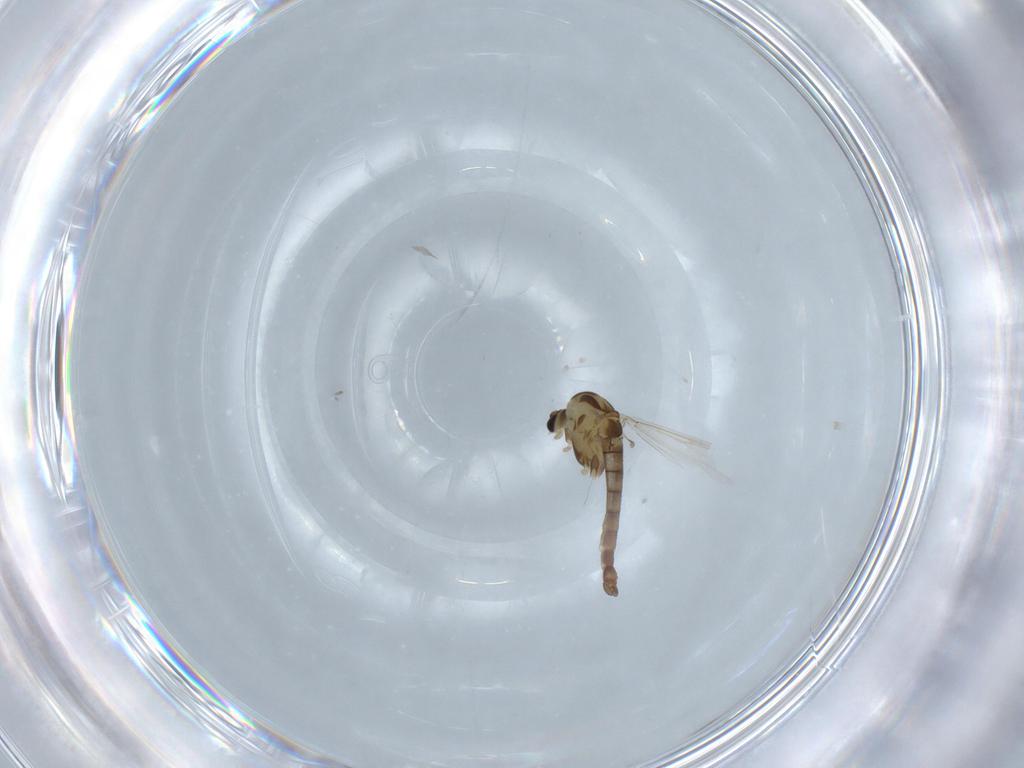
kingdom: Animalia
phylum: Arthropoda
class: Insecta
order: Diptera
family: Chironomidae
